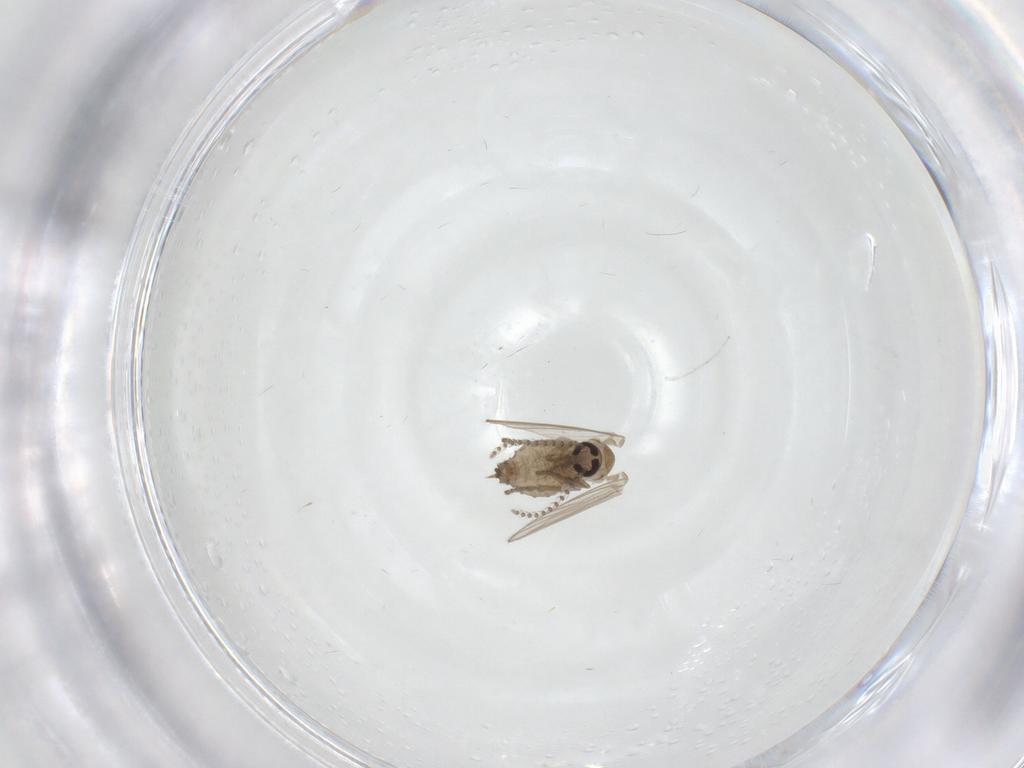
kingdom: Animalia
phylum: Arthropoda
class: Insecta
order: Diptera
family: Psychodidae
